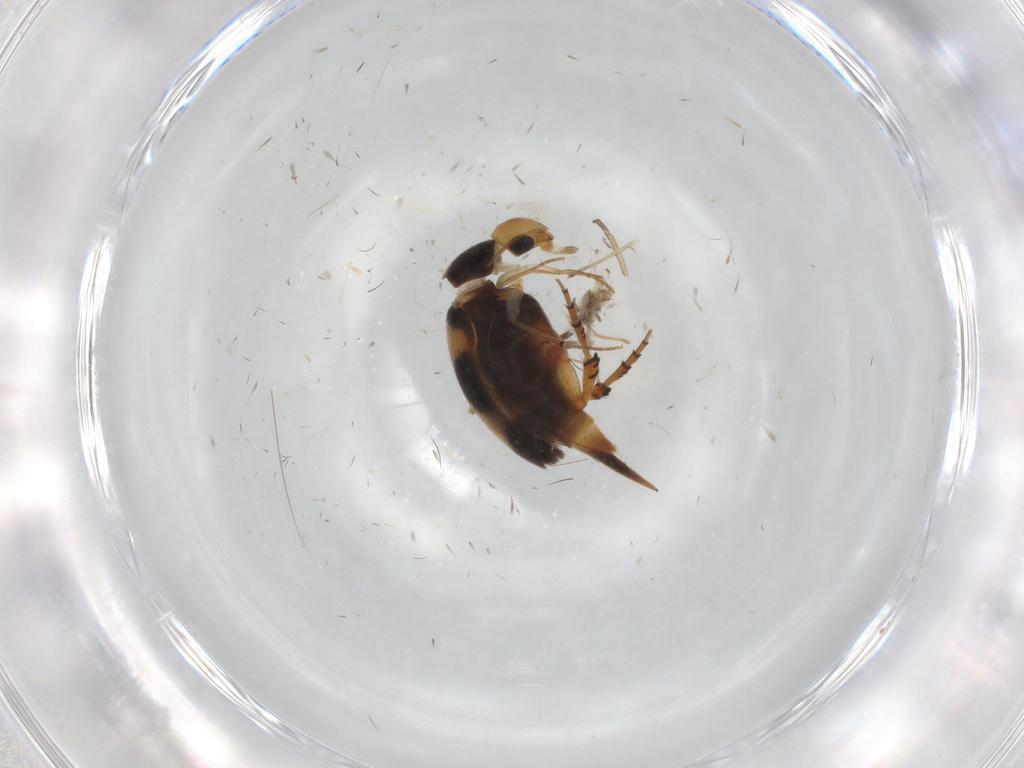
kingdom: Animalia
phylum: Arthropoda
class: Insecta
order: Coleoptera
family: Mordellidae
